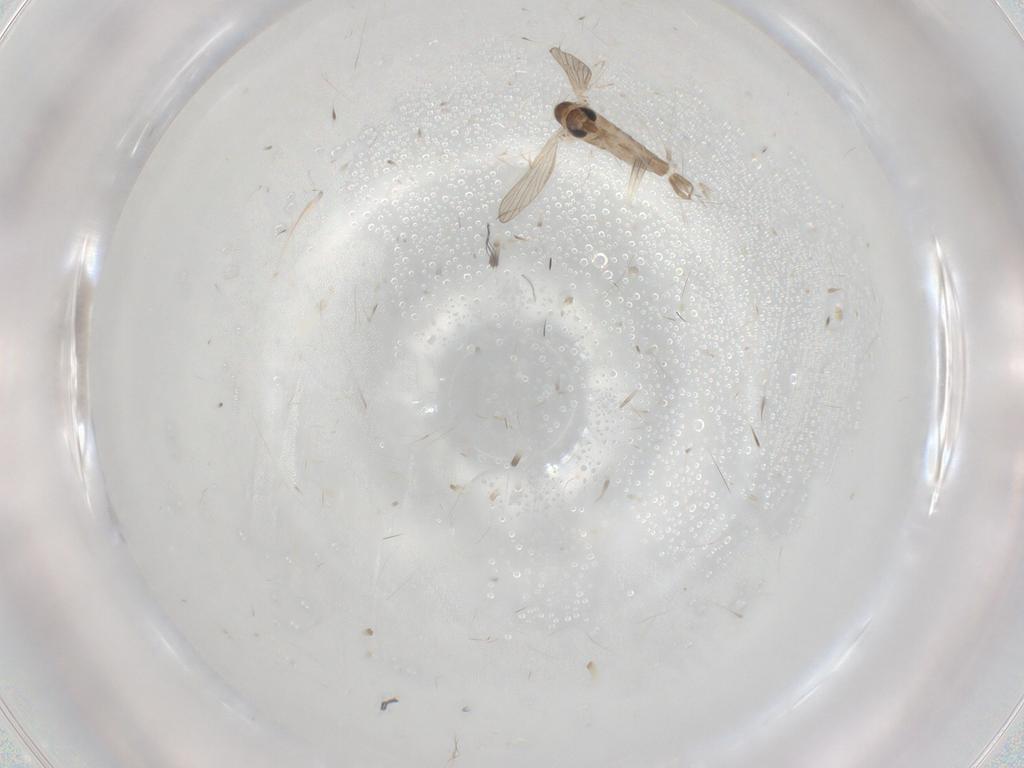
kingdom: Animalia
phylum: Arthropoda
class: Insecta
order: Diptera
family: Psychodidae
